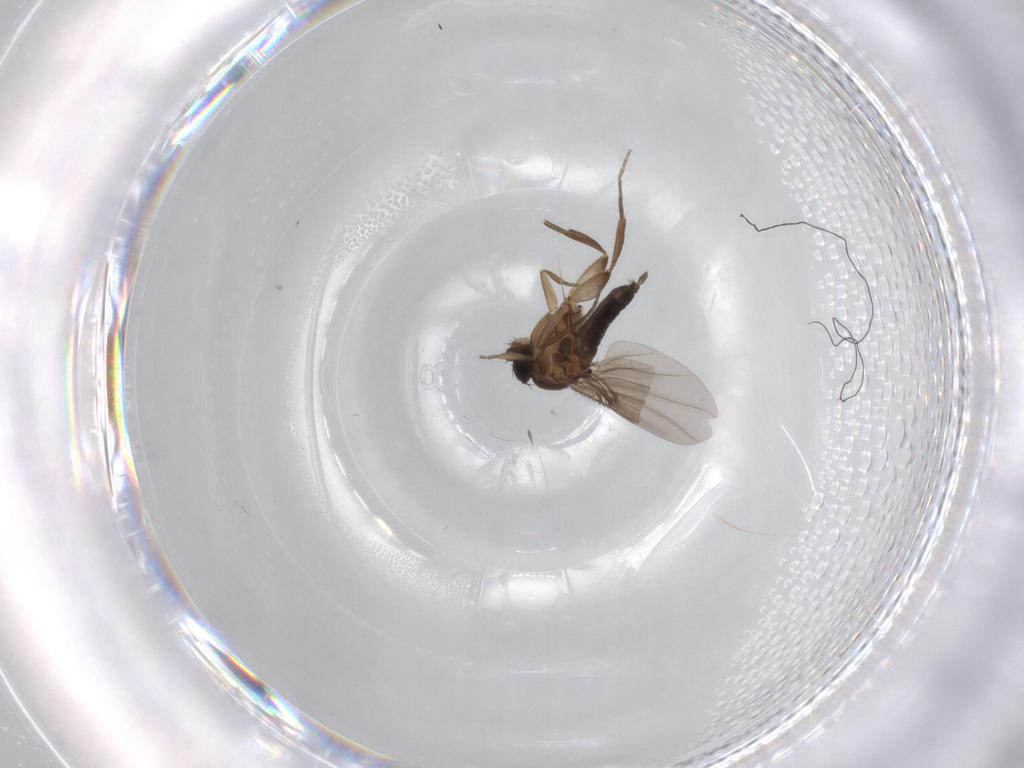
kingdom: Animalia
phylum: Arthropoda
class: Insecta
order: Diptera
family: Phoridae
